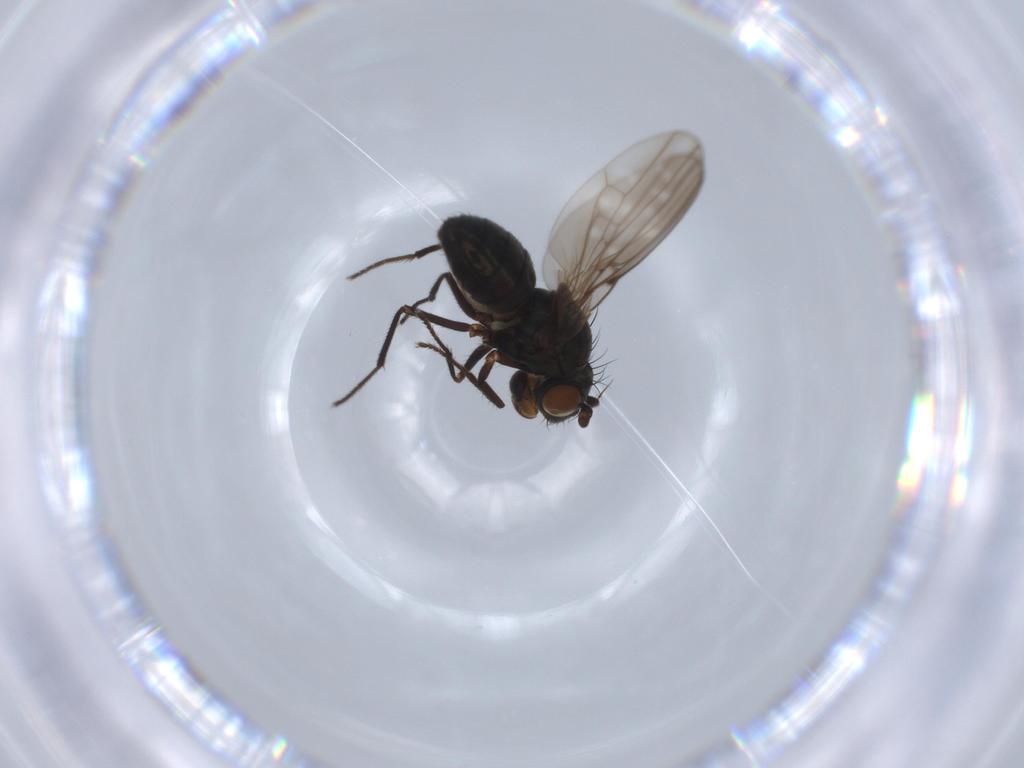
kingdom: Animalia
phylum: Arthropoda
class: Insecta
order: Diptera
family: Ephydridae
